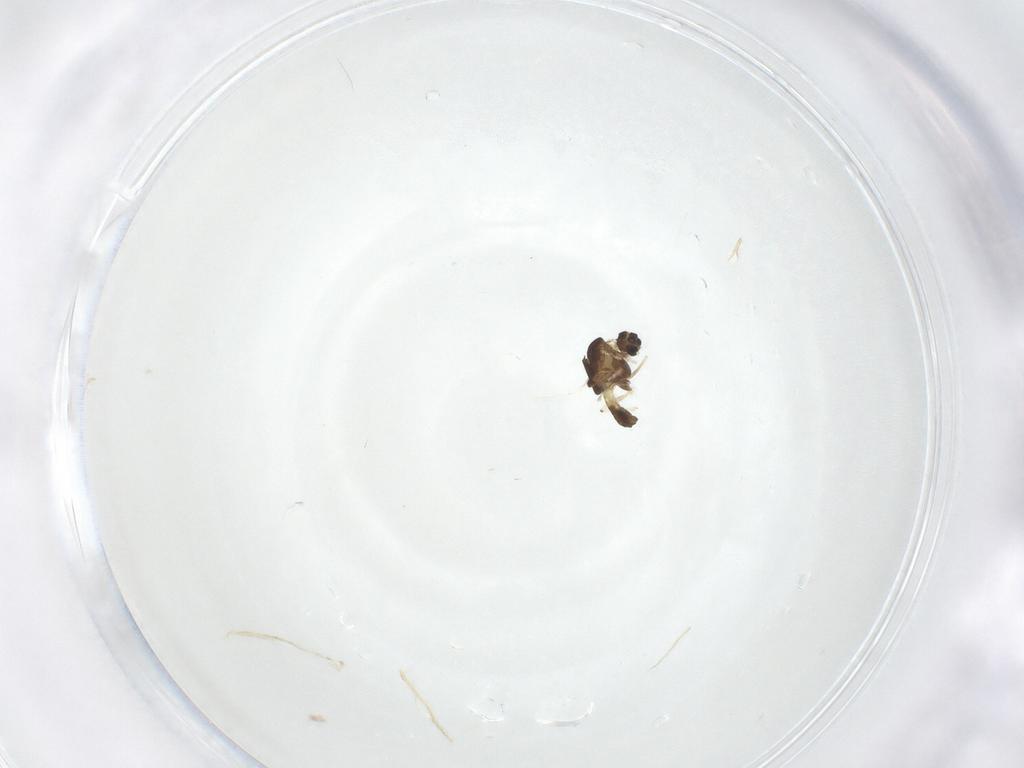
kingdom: Animalia
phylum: Arthropoda
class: Insecta
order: Diptera
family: Chironomidae
